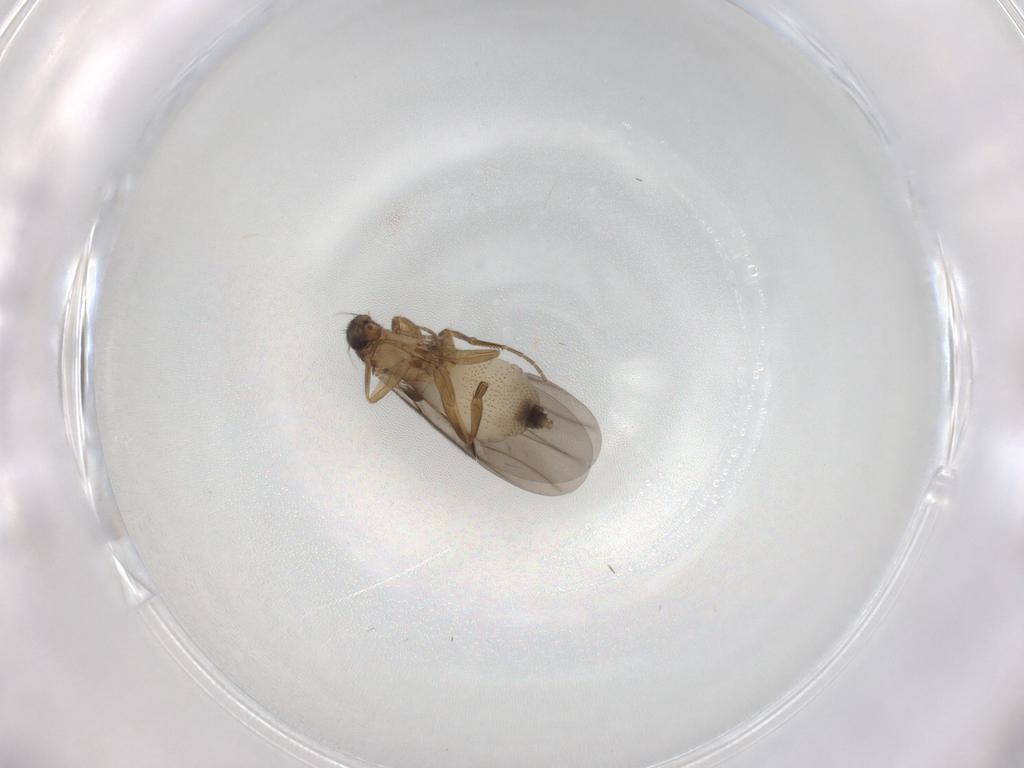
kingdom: Animalia
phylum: Arthropoda
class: Insecta
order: Diptera
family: Phoridae
